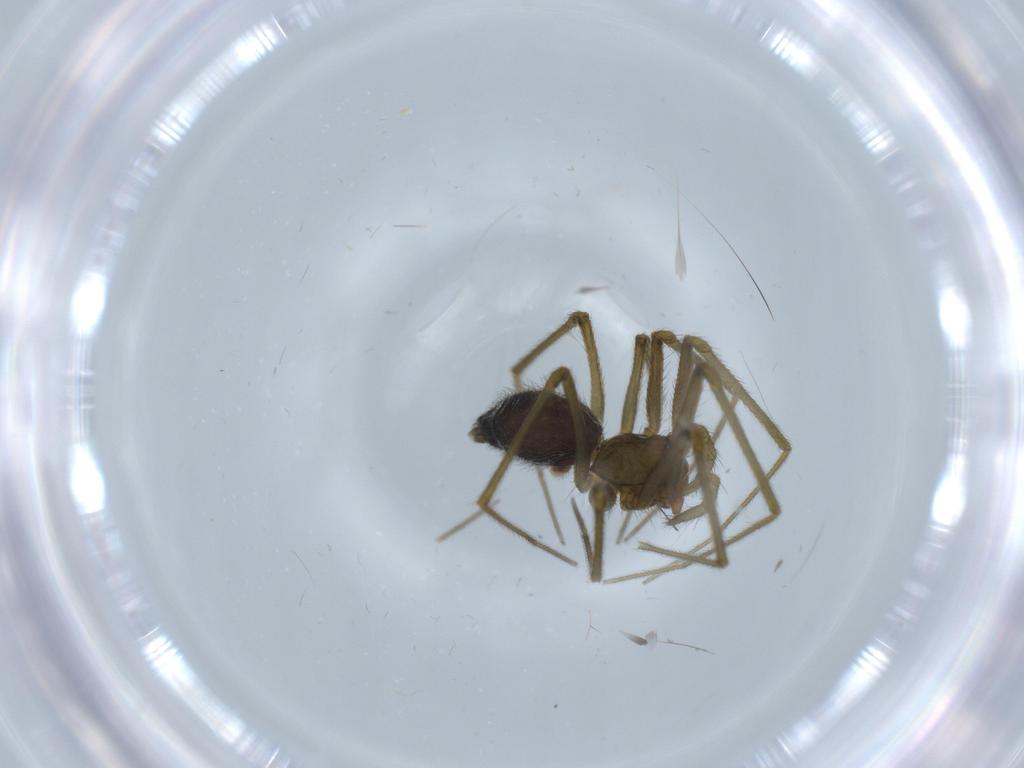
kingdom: Animalia
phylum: Arthropoda
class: Arachnida
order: Araneae
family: Linyphiidae
